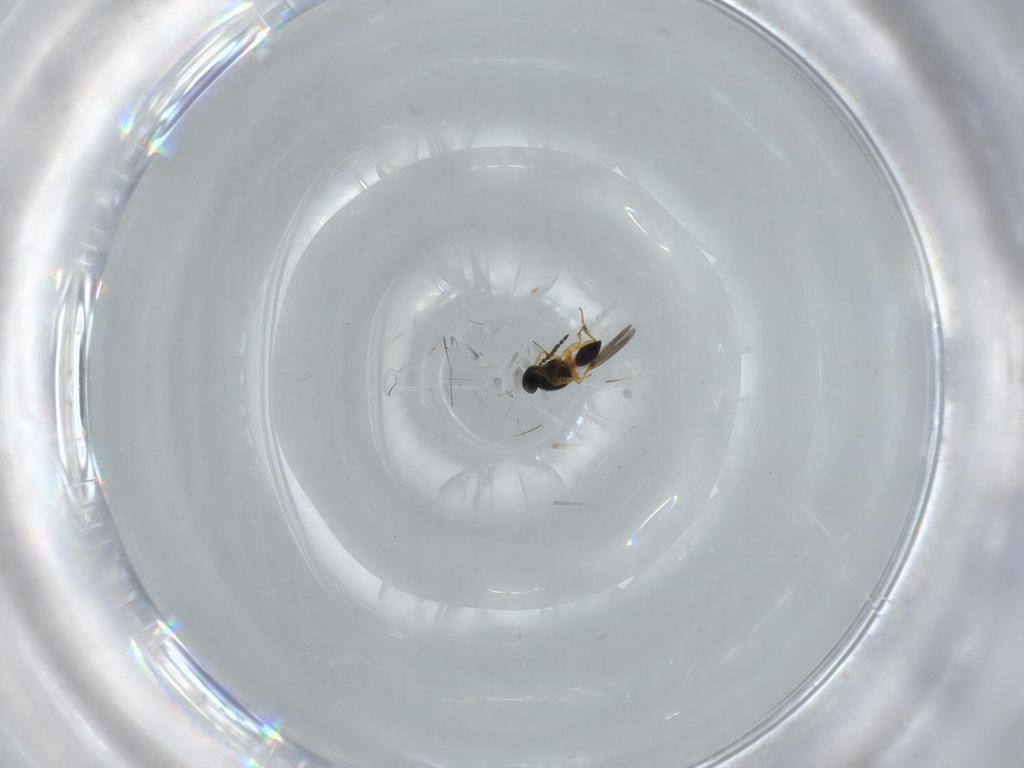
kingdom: Animalia
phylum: Arthropoda
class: Insecta
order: Hymenoptera
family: Platygastridae
